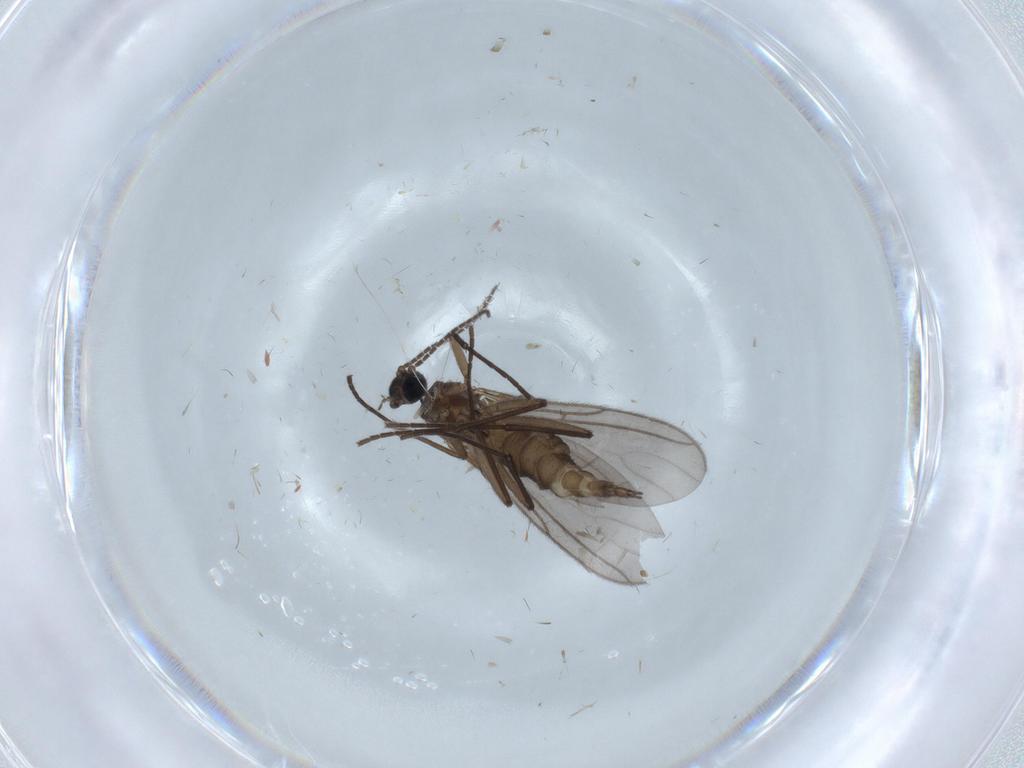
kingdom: Animalia
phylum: Arthropoda
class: Insecta
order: Diptera
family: Sciaridae
